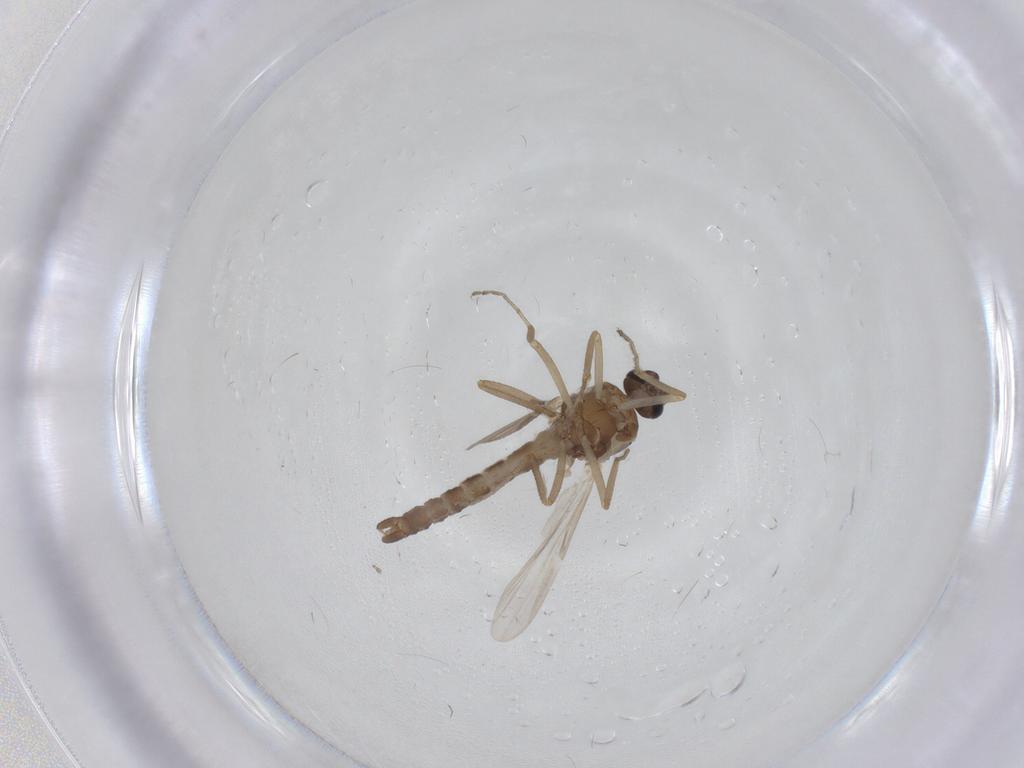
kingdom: Animalia
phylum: Arthropoda
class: Insecta
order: Diptera
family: Ceratopogonidae
